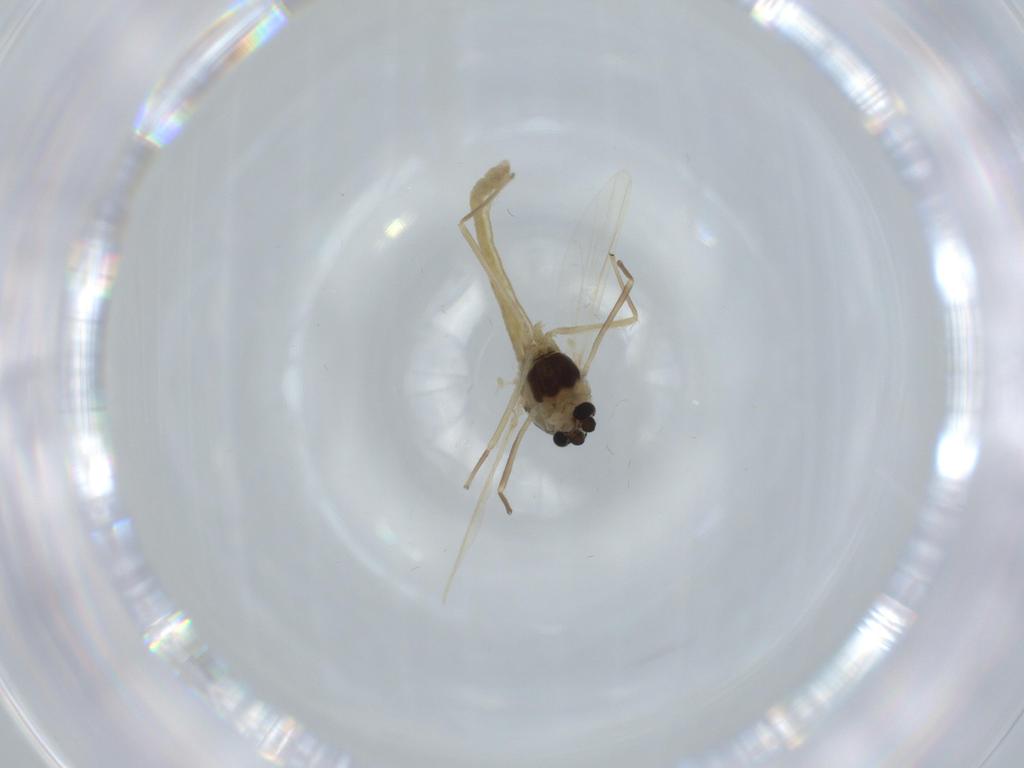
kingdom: Animalia
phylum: Arthropoda
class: Insecta
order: Diptera
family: Chironomidae
